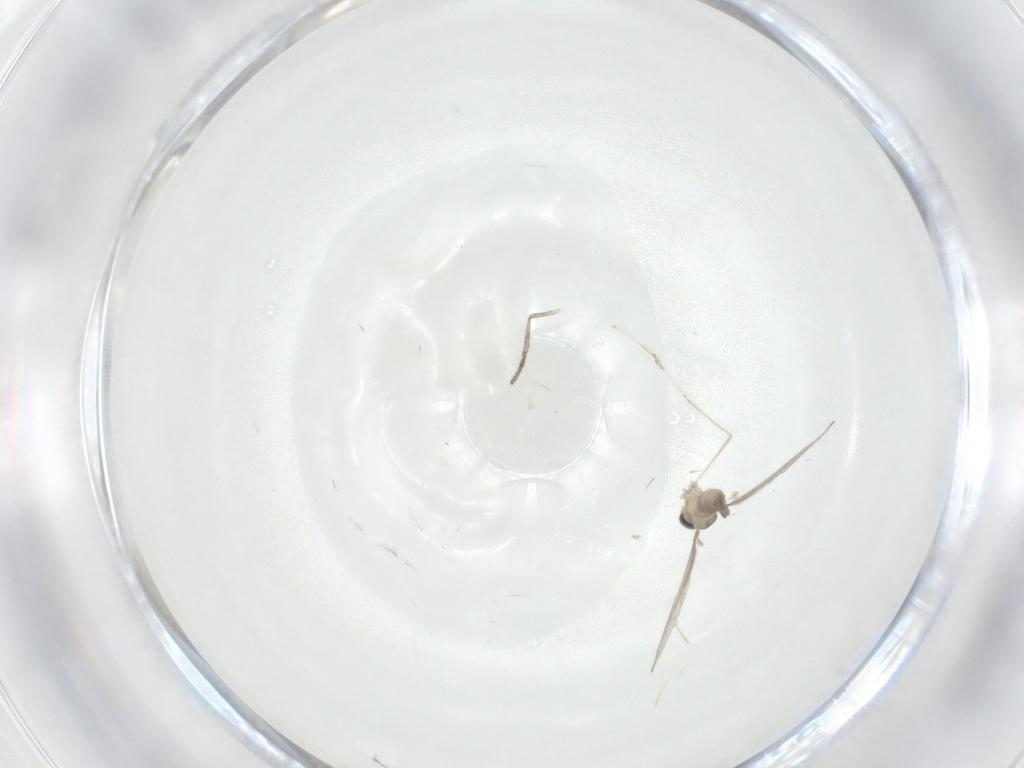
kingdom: Animalia
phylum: Arthropoda
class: Insecta
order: Diptera
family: Cecidomyiidae
